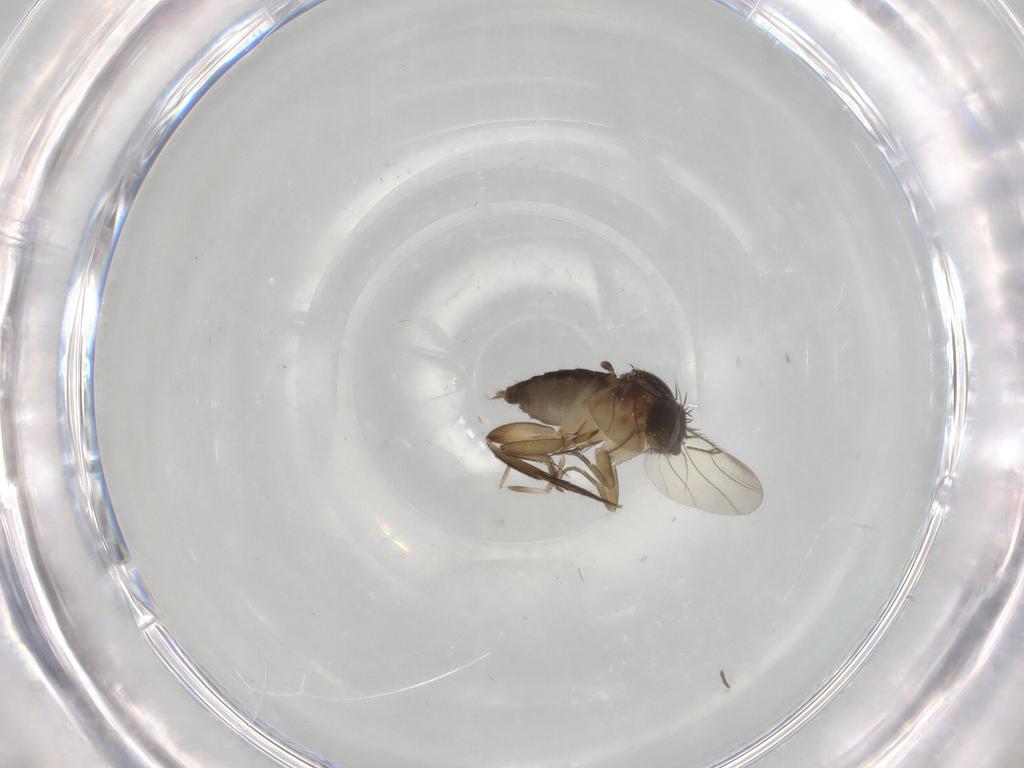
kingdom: Animalia
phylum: Arthropoda
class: Insecta
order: Diptera
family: Phoridae
